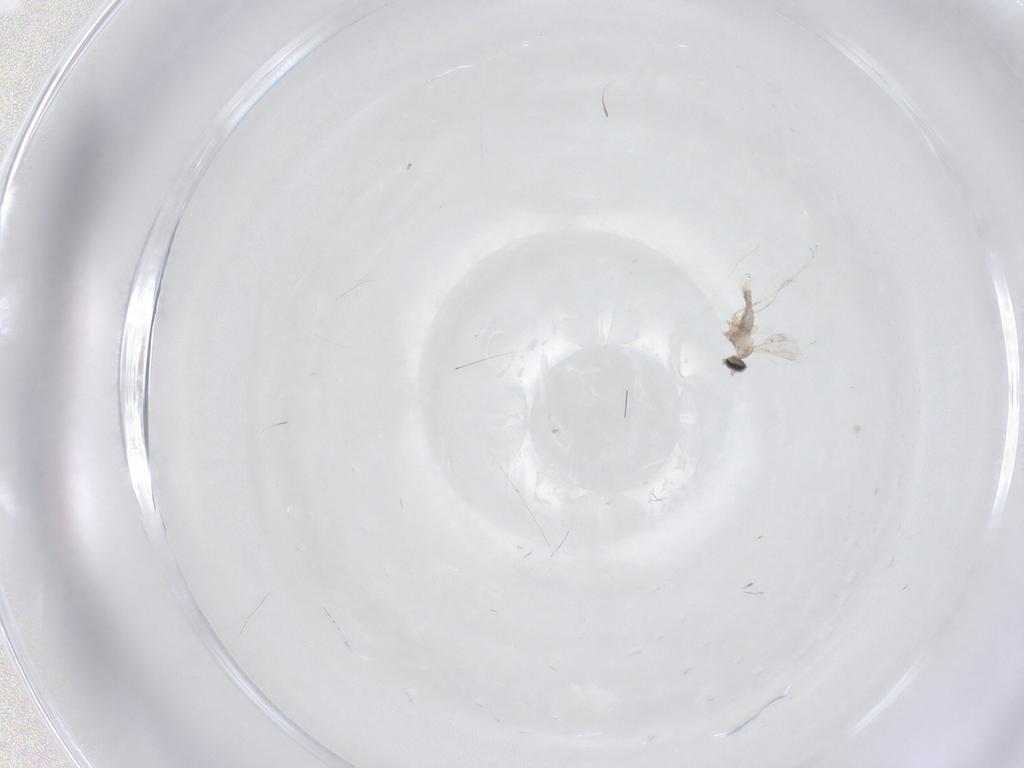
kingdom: Animalia
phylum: Arthropoda
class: Insecta
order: Diptera
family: Cecidomyiidae
